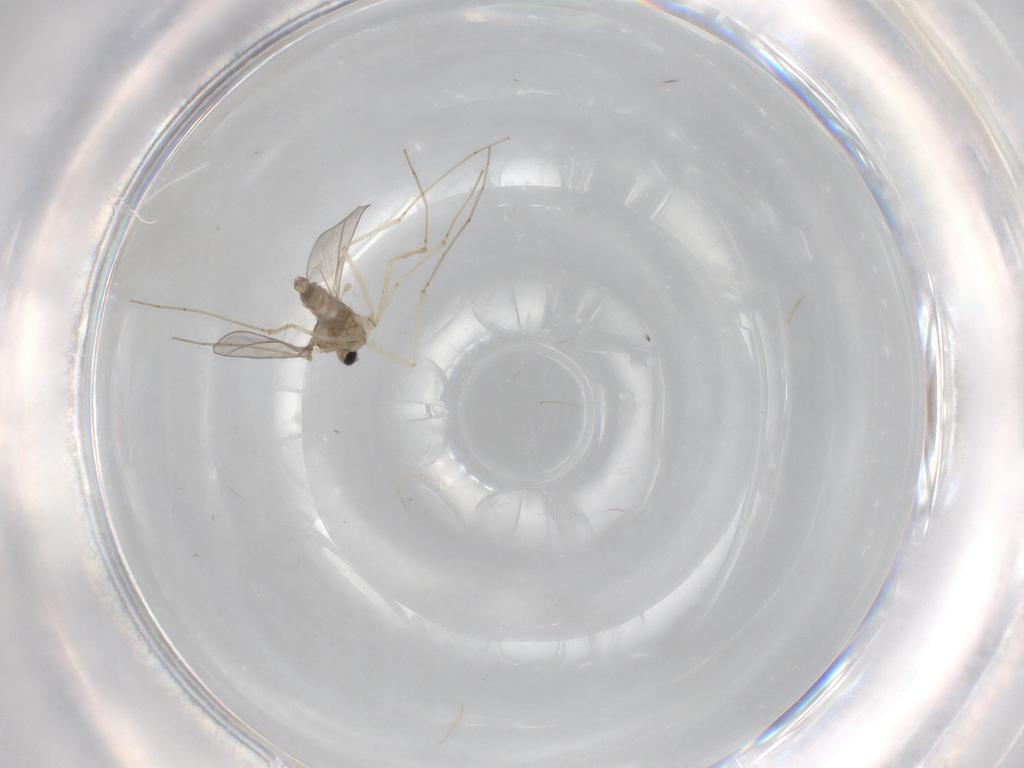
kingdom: Animalia
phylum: Arthropoda
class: Insecta
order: Diptera
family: Cecidomyiidae
